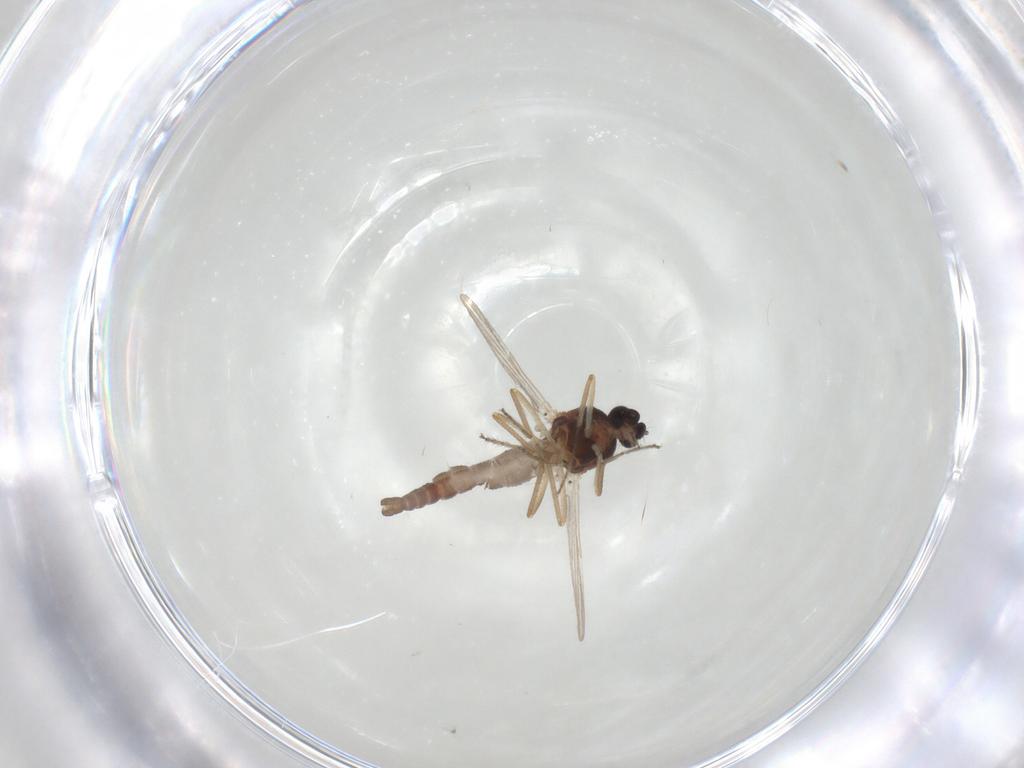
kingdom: Animalia
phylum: Arthropoda
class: Insecta
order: Diptera
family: Ceratopogonidae
